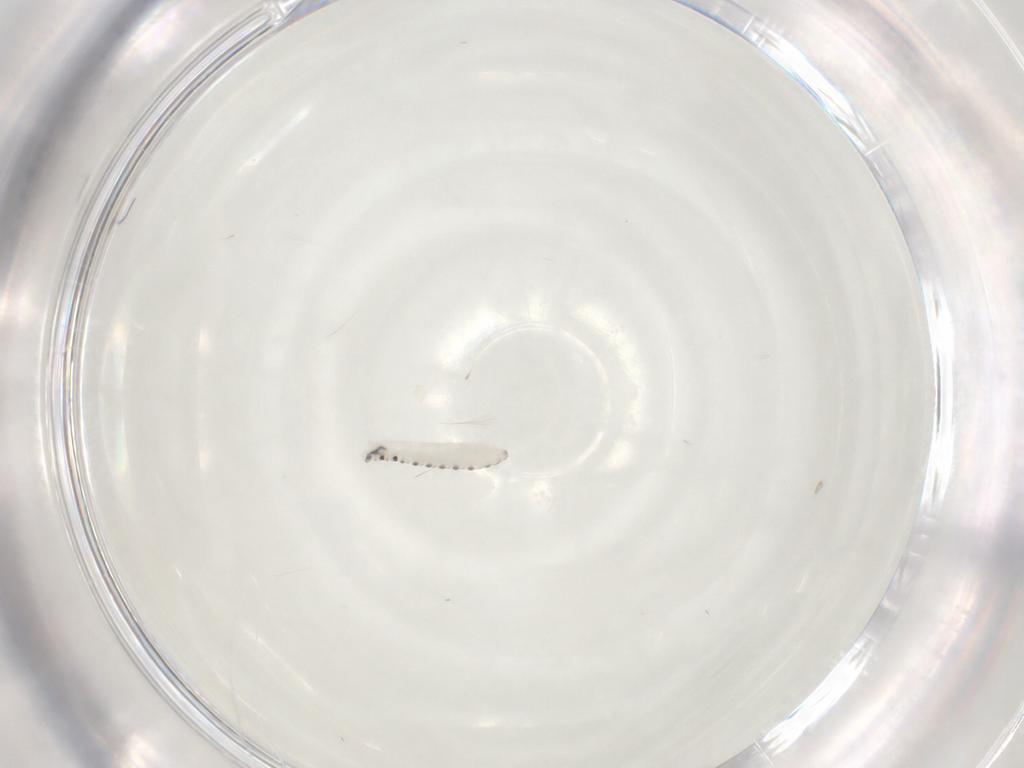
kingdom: Animalia
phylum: Arthropoda
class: Insecta
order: Diptera
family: Tachinidae
